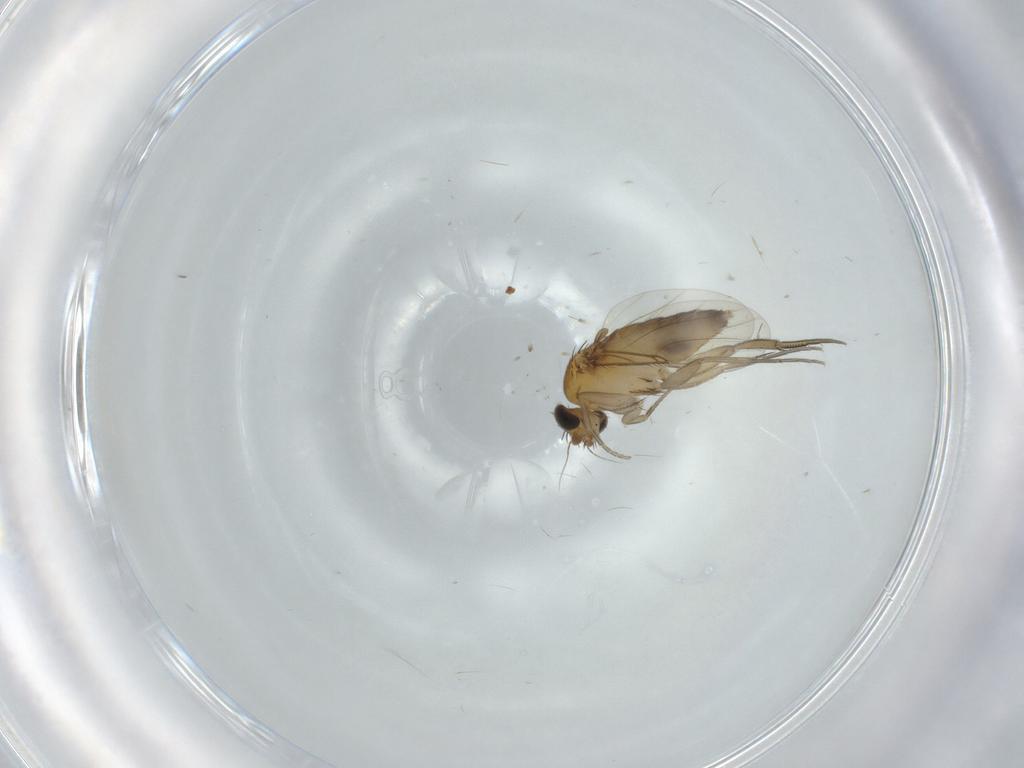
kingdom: Animalia
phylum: Arthropoda
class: Insecta
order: Diptera
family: Phoridae
